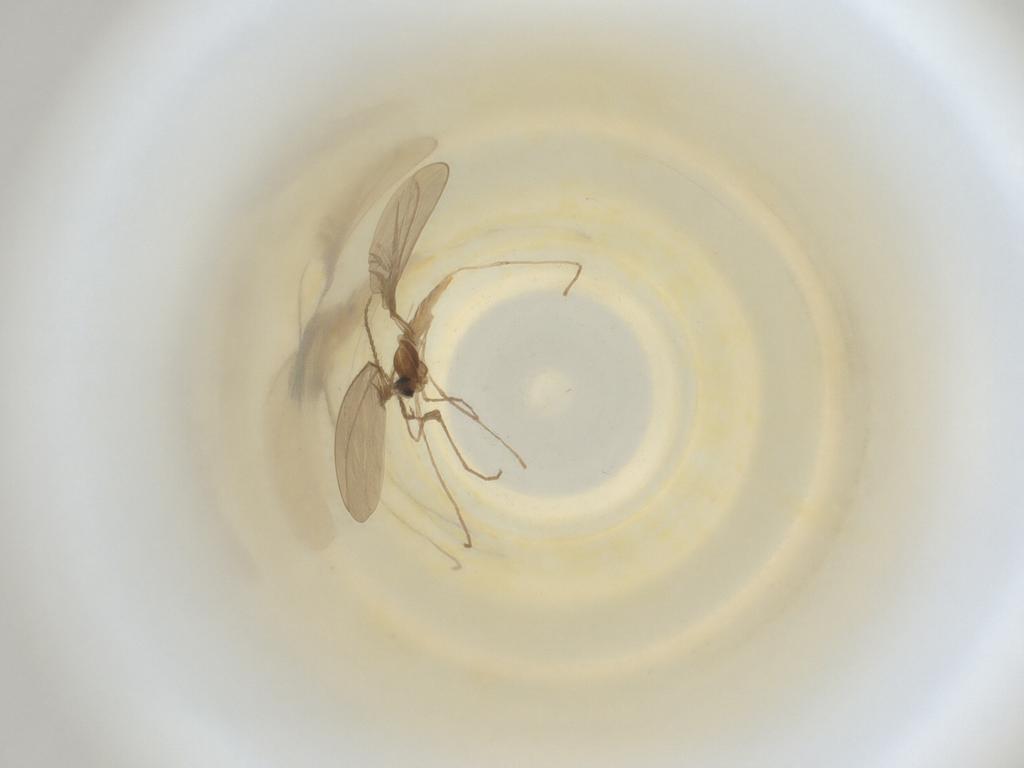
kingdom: Animalia
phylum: Arthropoda
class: Insecta
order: Diptera
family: Cecidomyiidae
